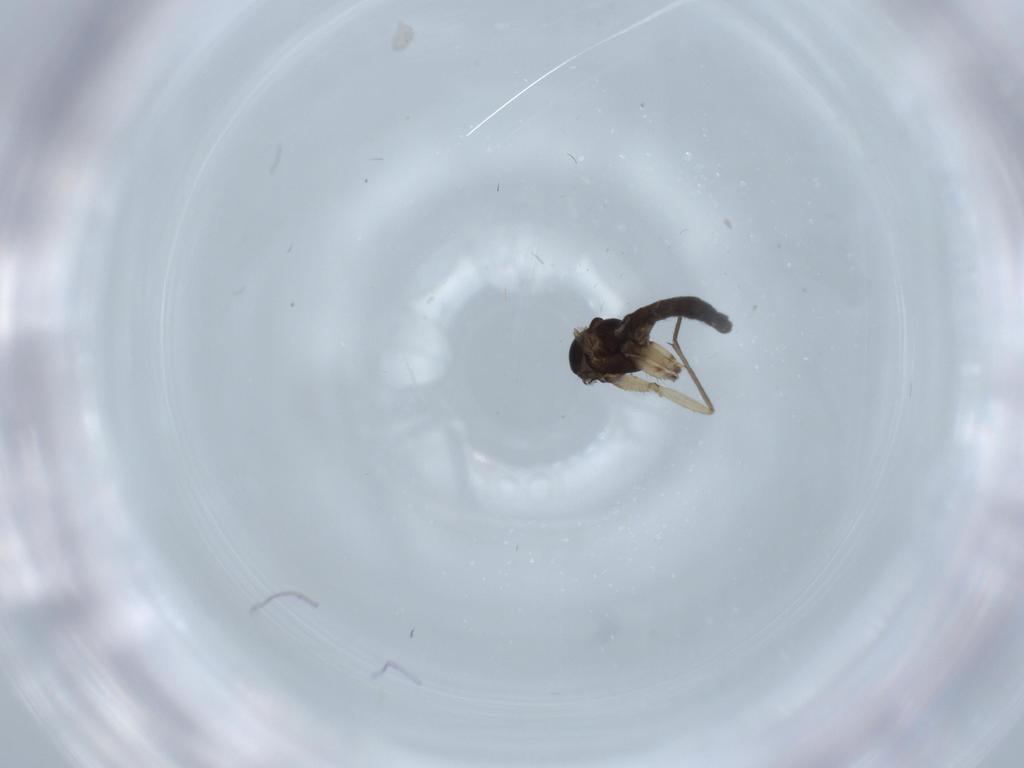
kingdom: Animalia
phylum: Arthropoda
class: Insecta
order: Diptera
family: Sciaridae
